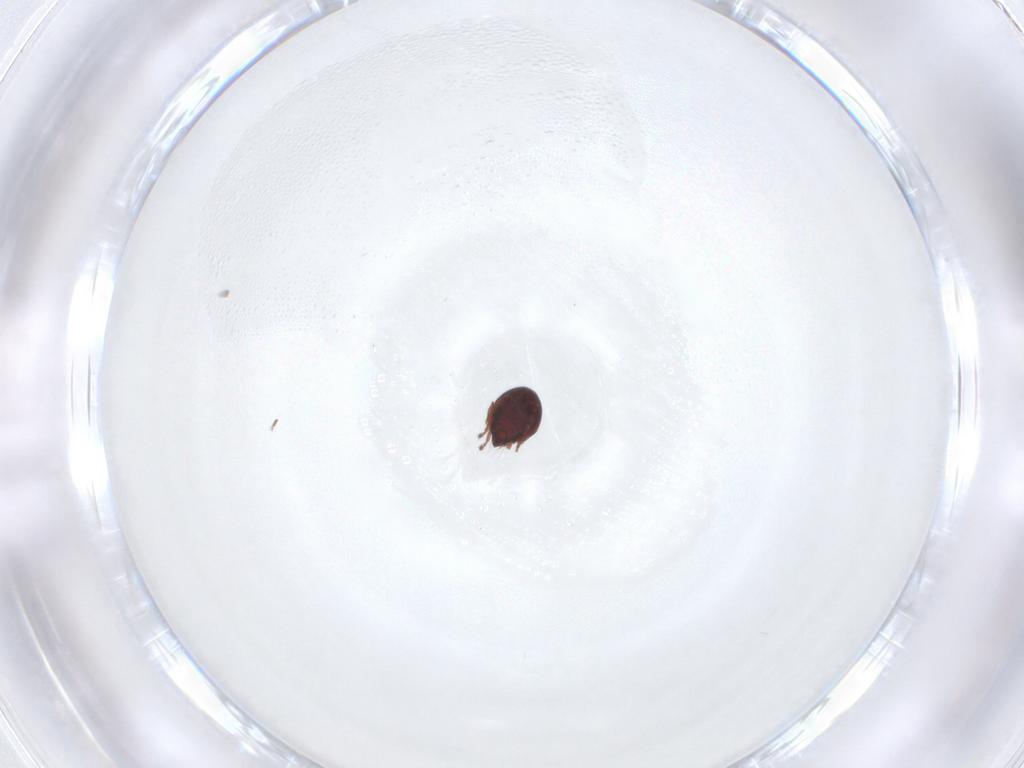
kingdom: Animalia
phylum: Arthropoda
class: Arachnida
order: Sarcoptiformes
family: Ceratozetidae
